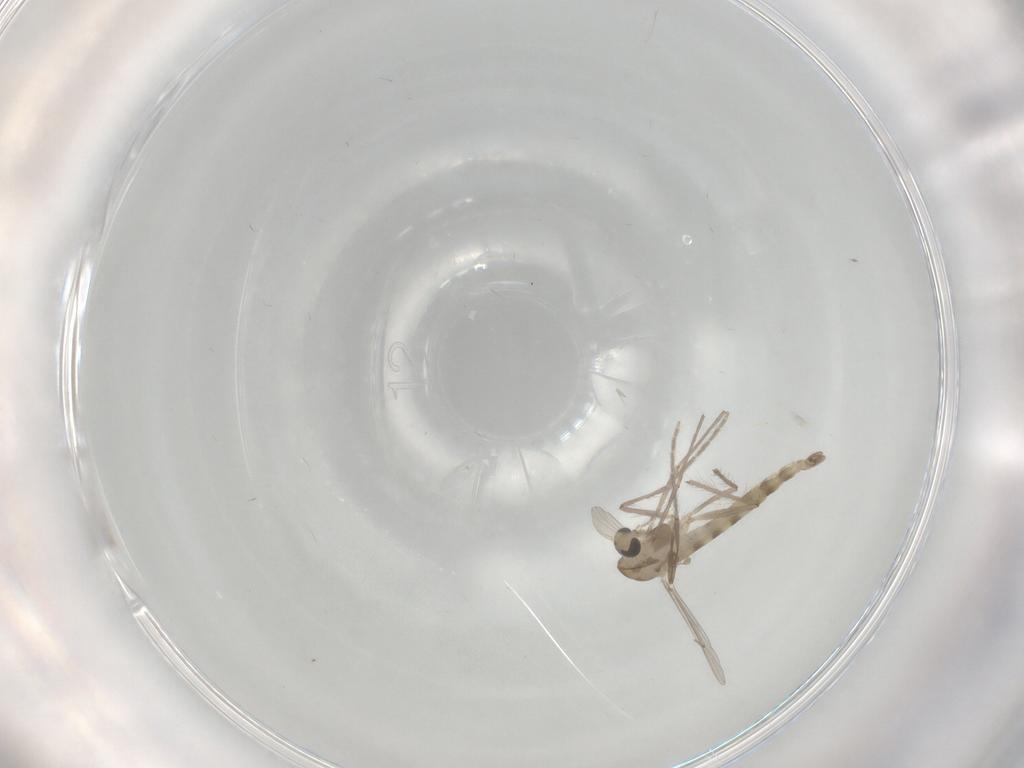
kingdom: Animalia
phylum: Arthropoda
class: Insecta
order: Diptera
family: Chironomidae
